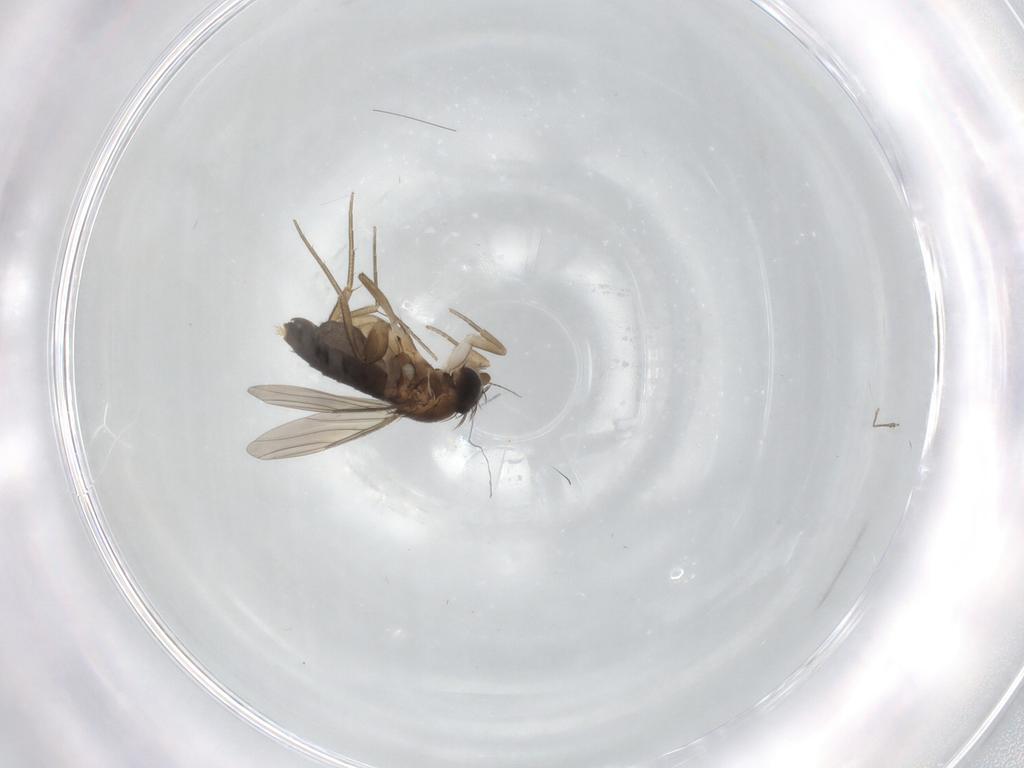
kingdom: Animalia
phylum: Arthropoda
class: Insecta
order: Diptera
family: Phoridae
